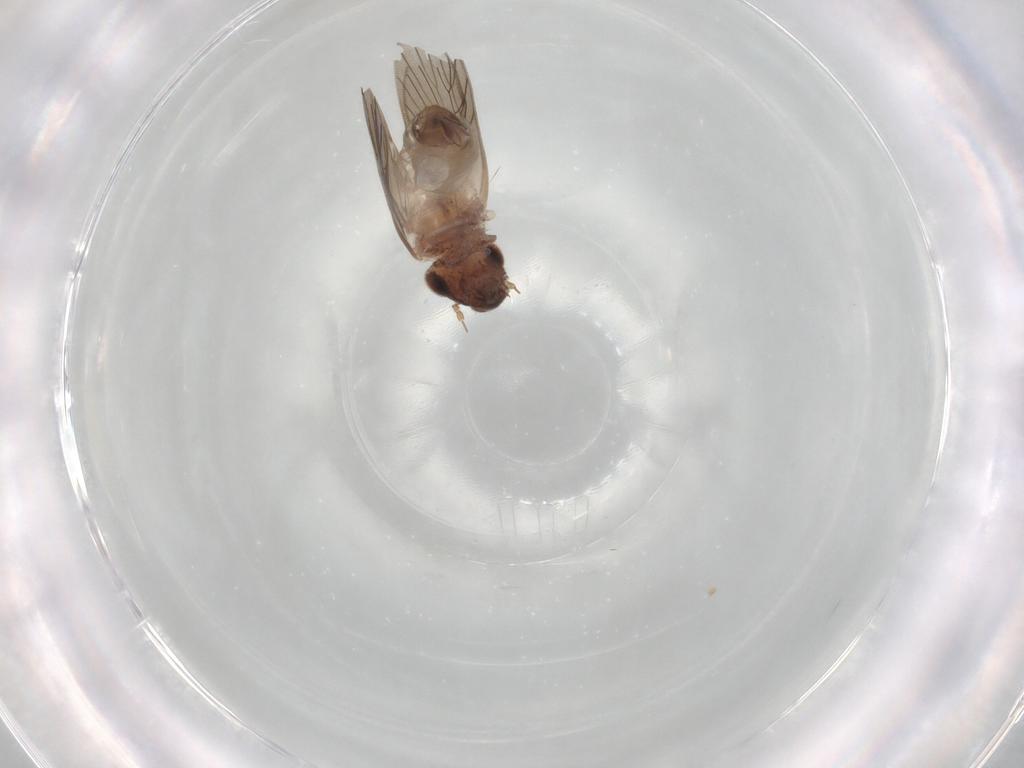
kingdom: Animalia
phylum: Arthropoda
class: Insecta
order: Psocodea
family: Lepidopsocidae
